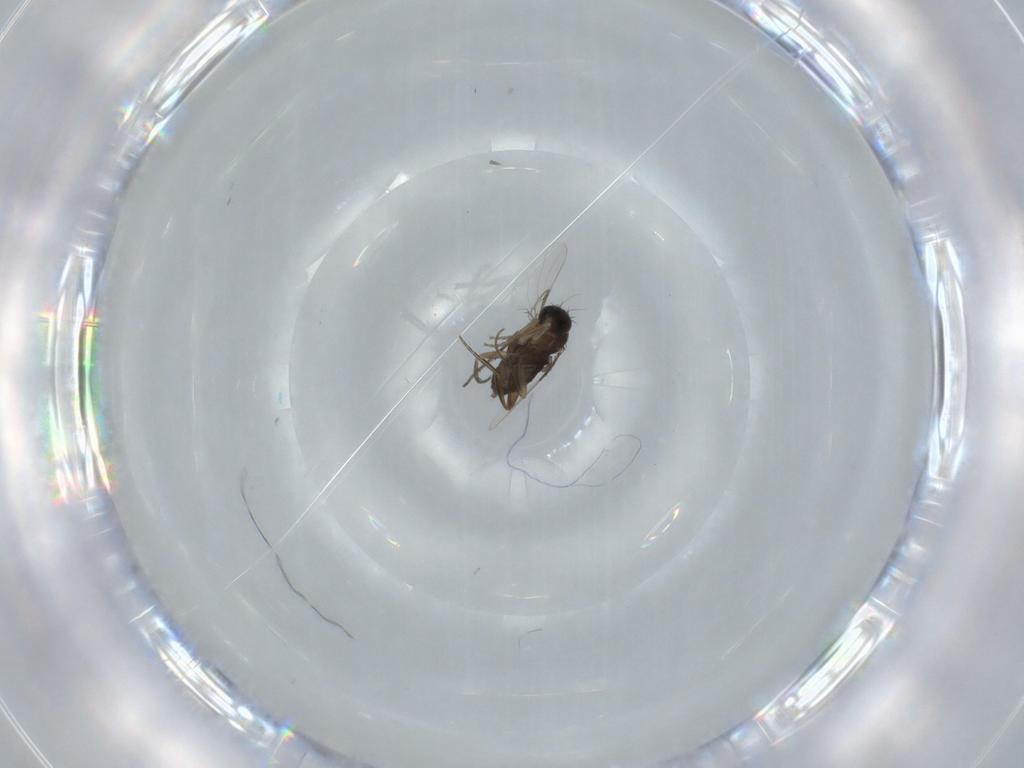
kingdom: Animalia
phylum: Arthropoda
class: Insecta
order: Diptera
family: Phoridae
